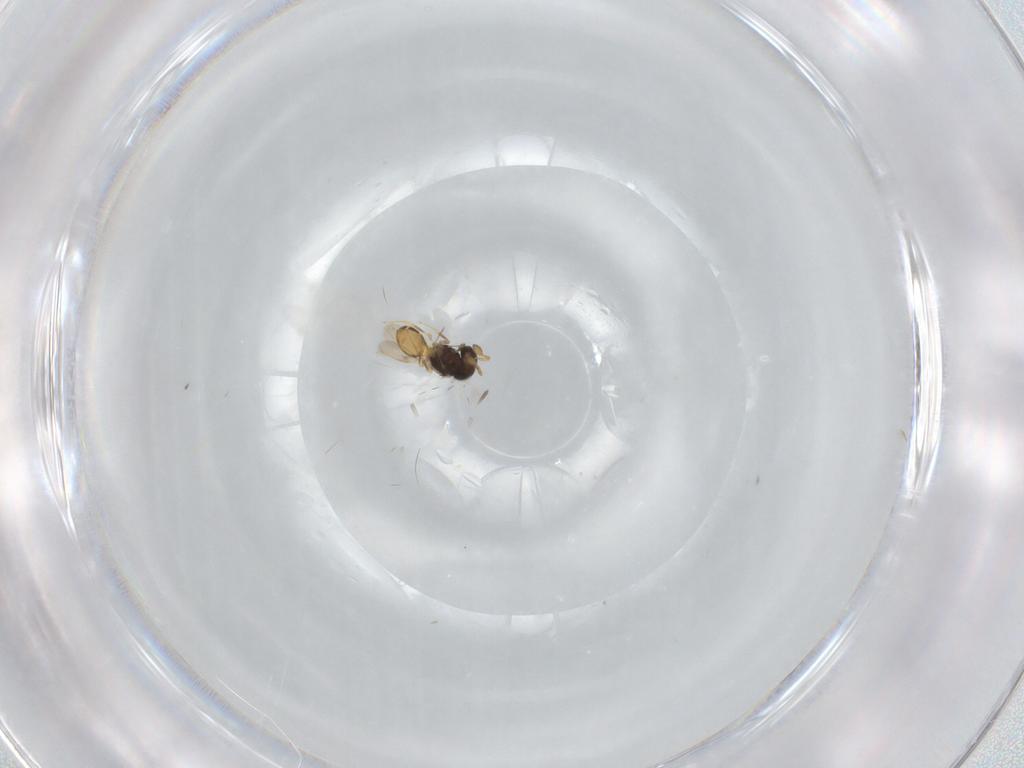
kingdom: Animalia
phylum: Arthropoda
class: Insecta
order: Hymenoptera
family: Scelionidae
